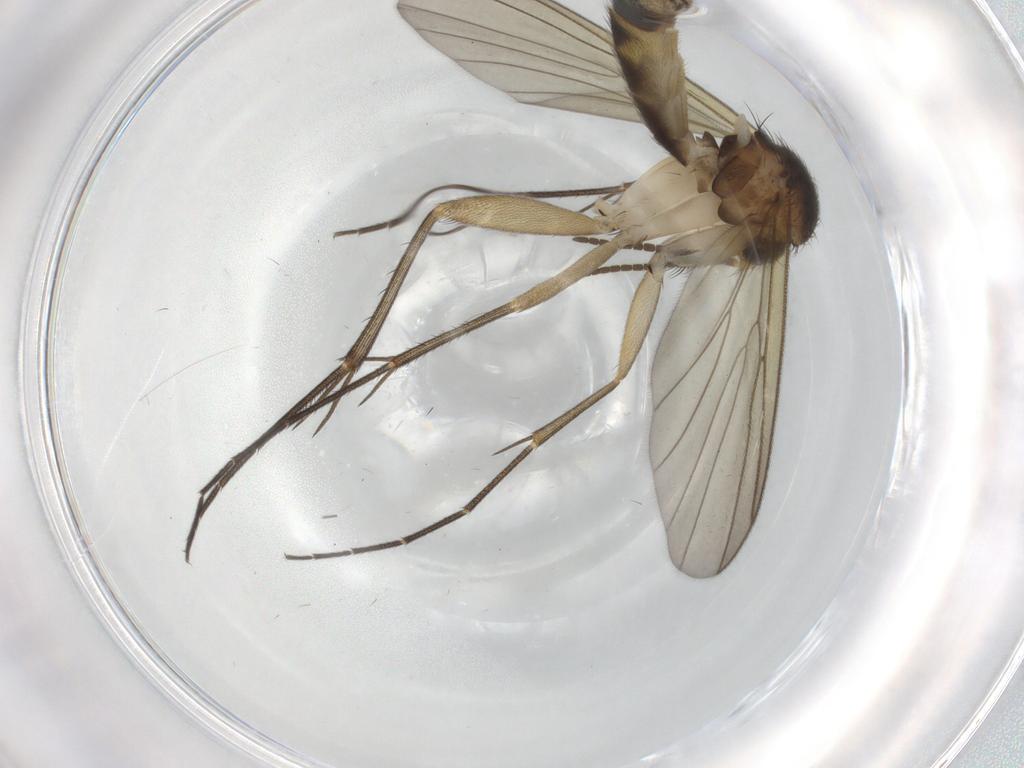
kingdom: Animalia
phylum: Arthropoda
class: Insecta
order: Diptera
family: Mycetophilidae
